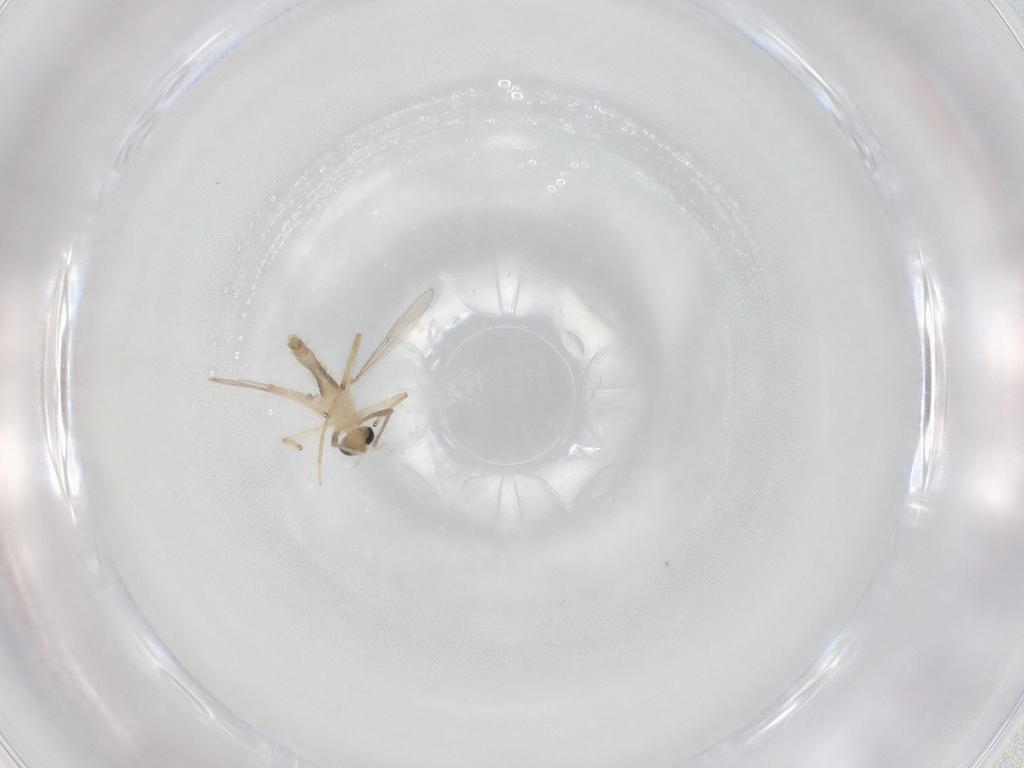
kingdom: Animalia
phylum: Arthropoda
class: Insecta
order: Diptera
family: Chironomidae
